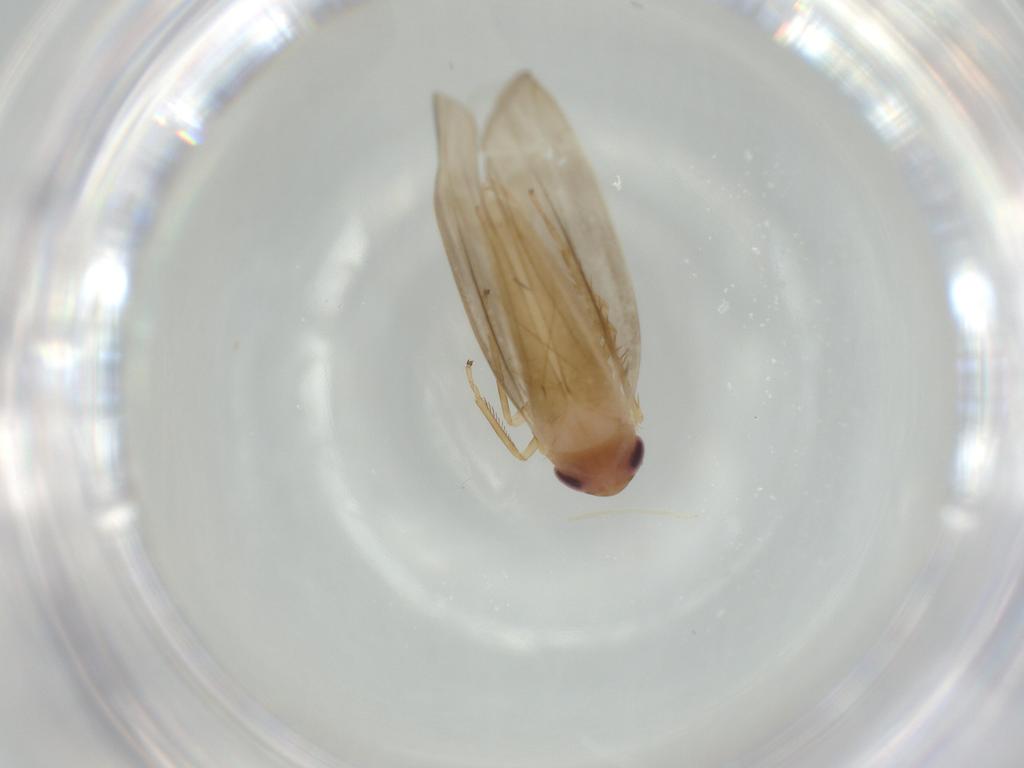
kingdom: Animalia
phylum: Arthropoda
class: Insecta
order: Hemiptera
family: Cicadellidae
